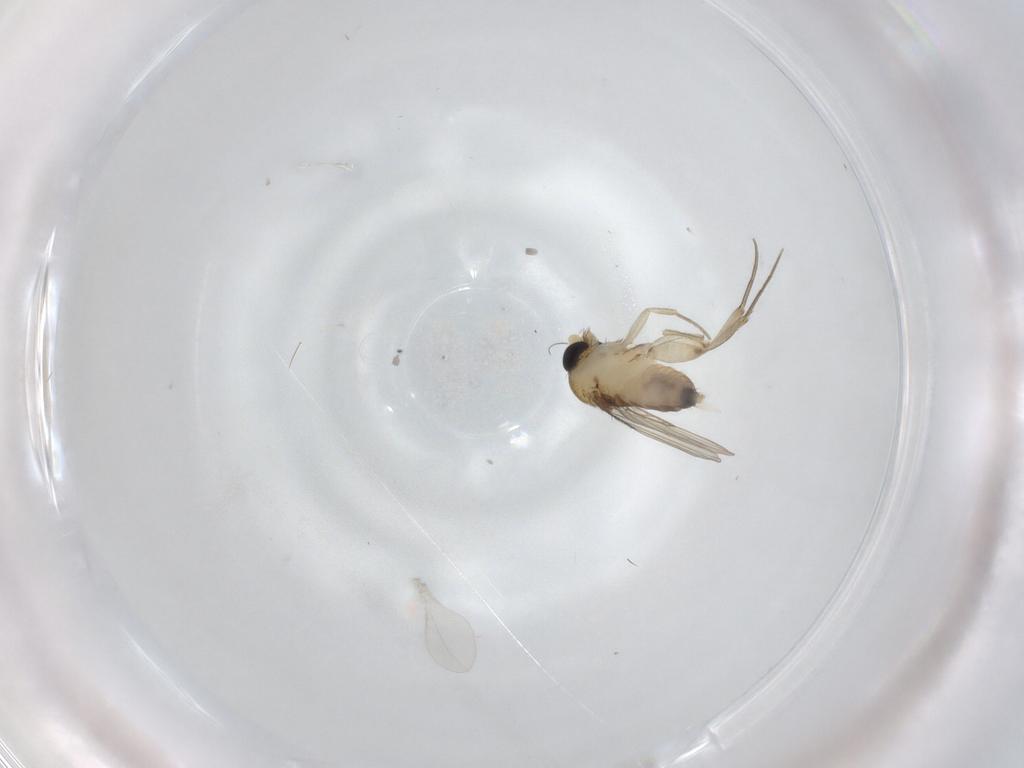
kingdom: Animalia
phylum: Arthropoda
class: Insecta
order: Diptera
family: Phoridae
